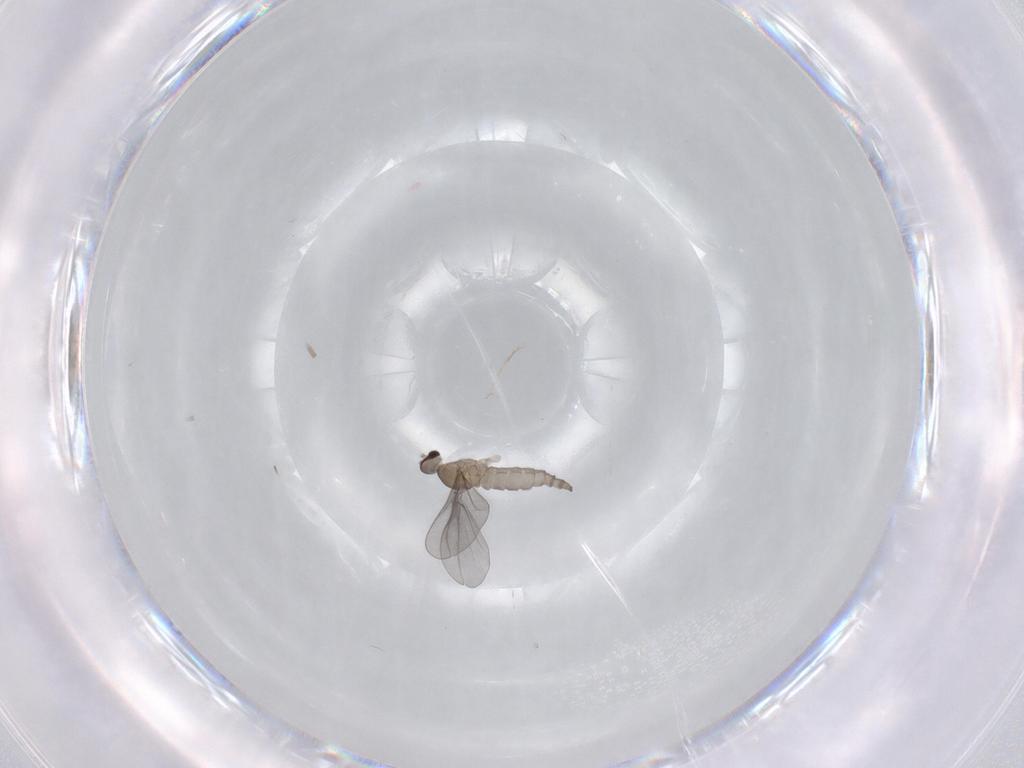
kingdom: Animalia
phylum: Arthropoda
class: Insecta
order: Diptera
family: Cecidomyiidae
